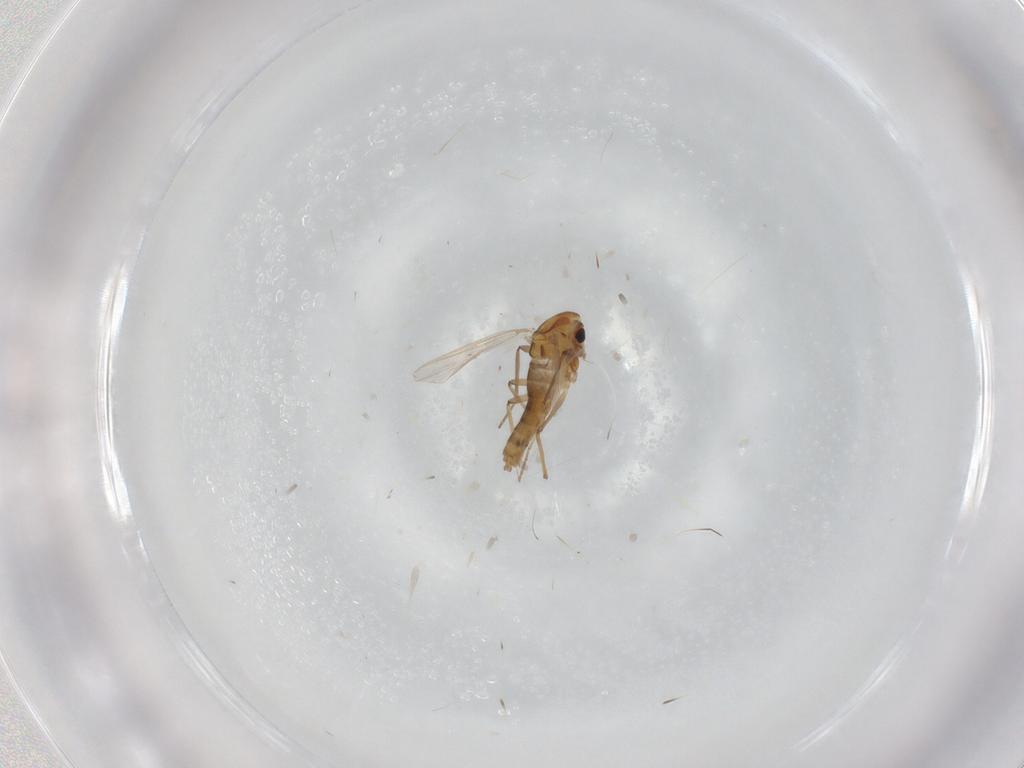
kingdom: Animalia
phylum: Arthropoda
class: Insecta
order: Diptera
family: Chironomidae
